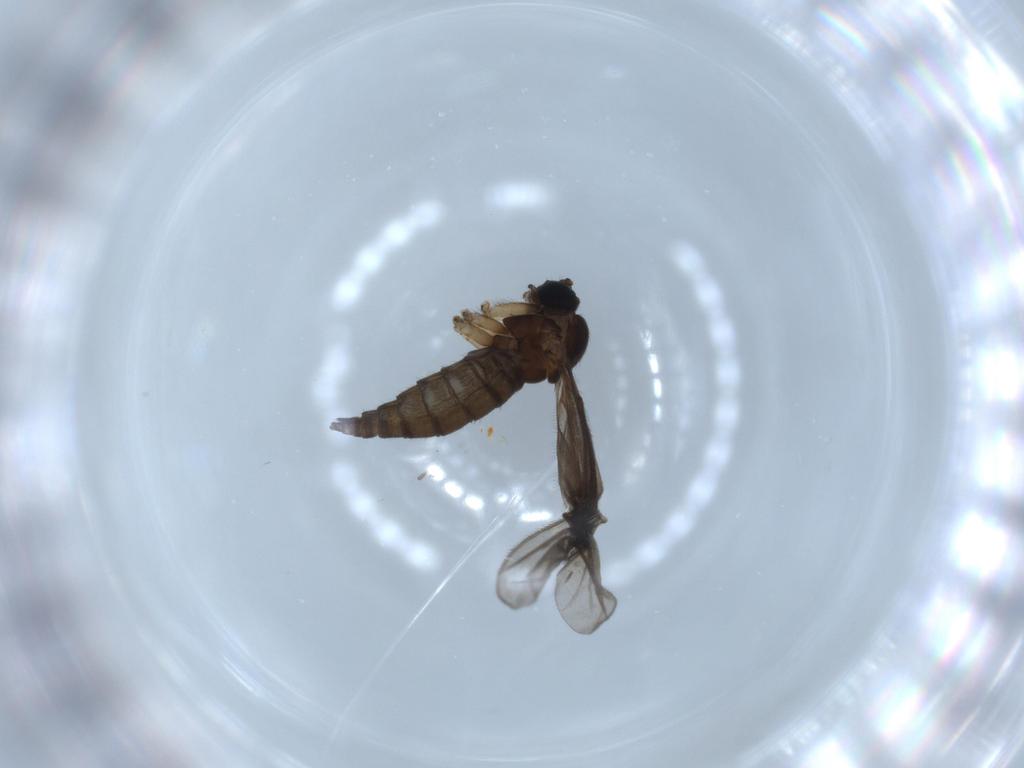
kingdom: Animalia
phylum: Arthropoda
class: Insecta
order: Diptera
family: Sciaridae
